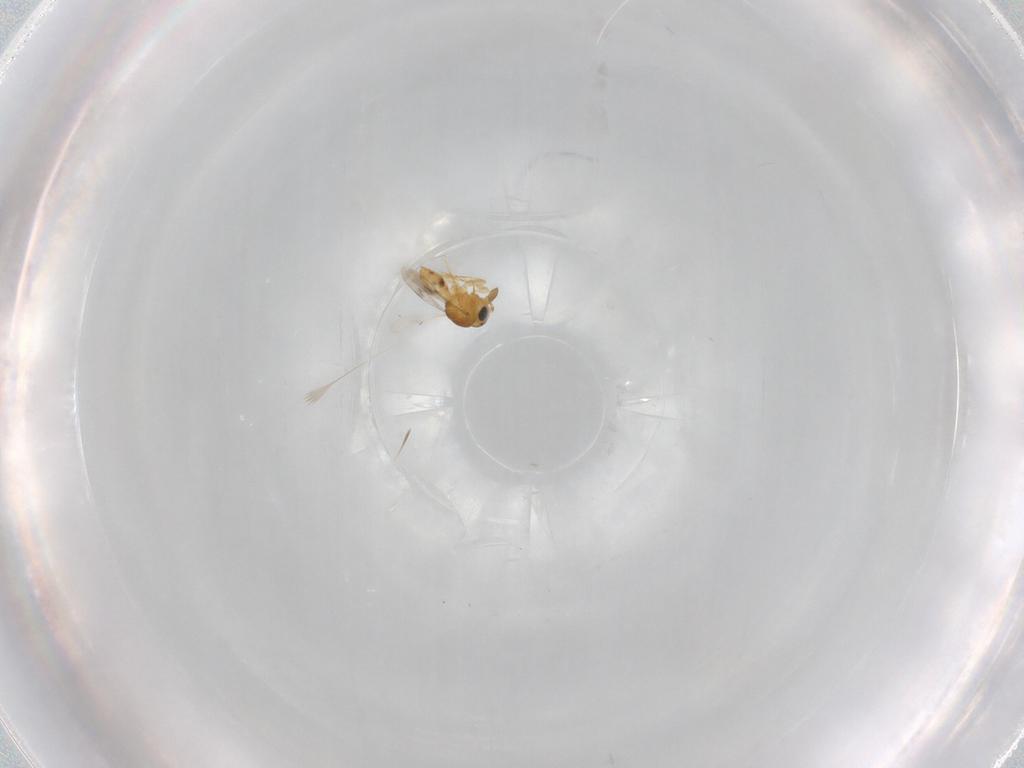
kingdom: Animalia
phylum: Arthropoda
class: Insecta
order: Hymenoptera
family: Scelionidae
